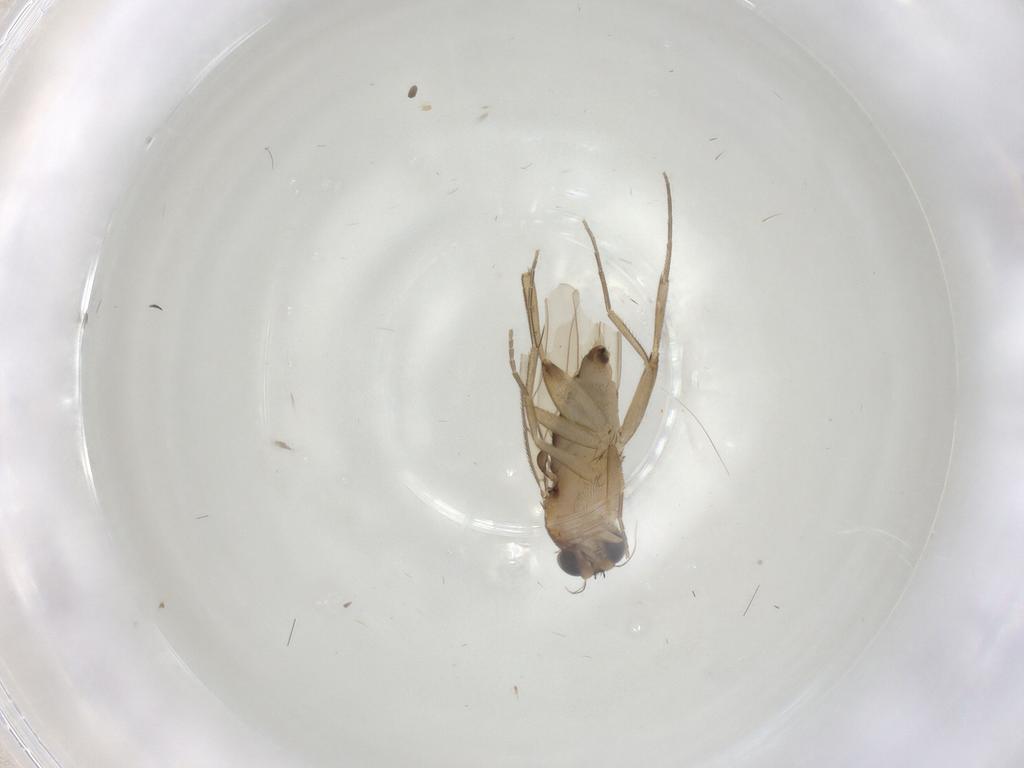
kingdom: Animalia
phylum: Arthropoda
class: Insecta
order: Diptera
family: Phoridae
